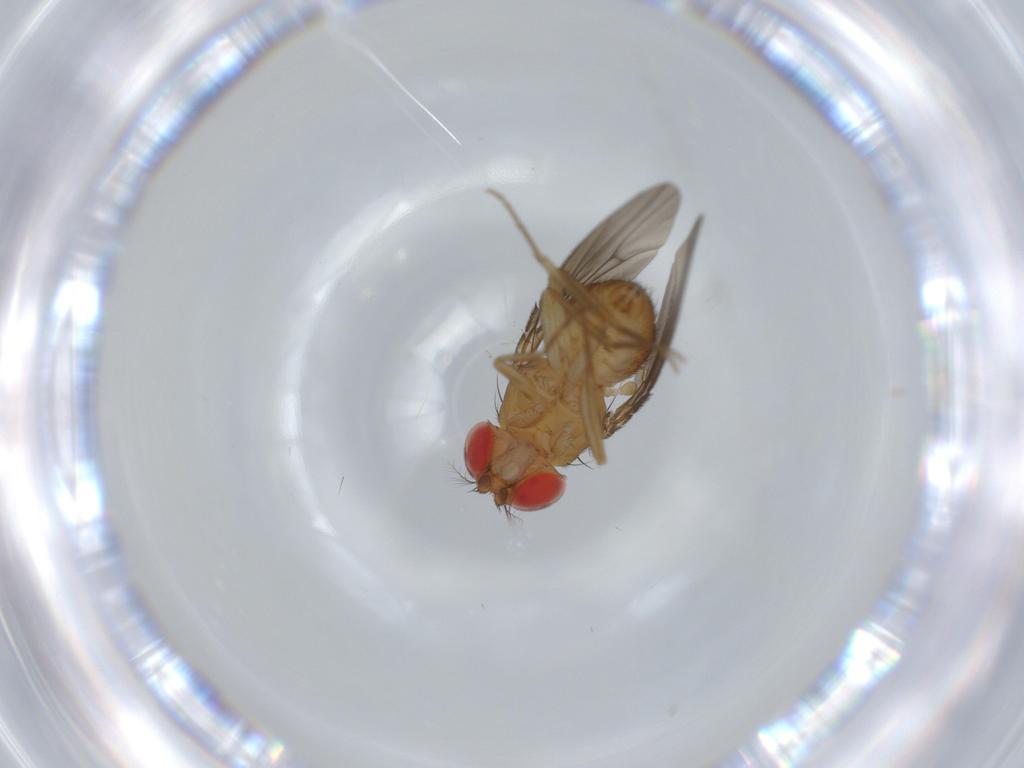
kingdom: Animalia
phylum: Arthropoda
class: Insecta
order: Diptera
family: Drosophilidae
